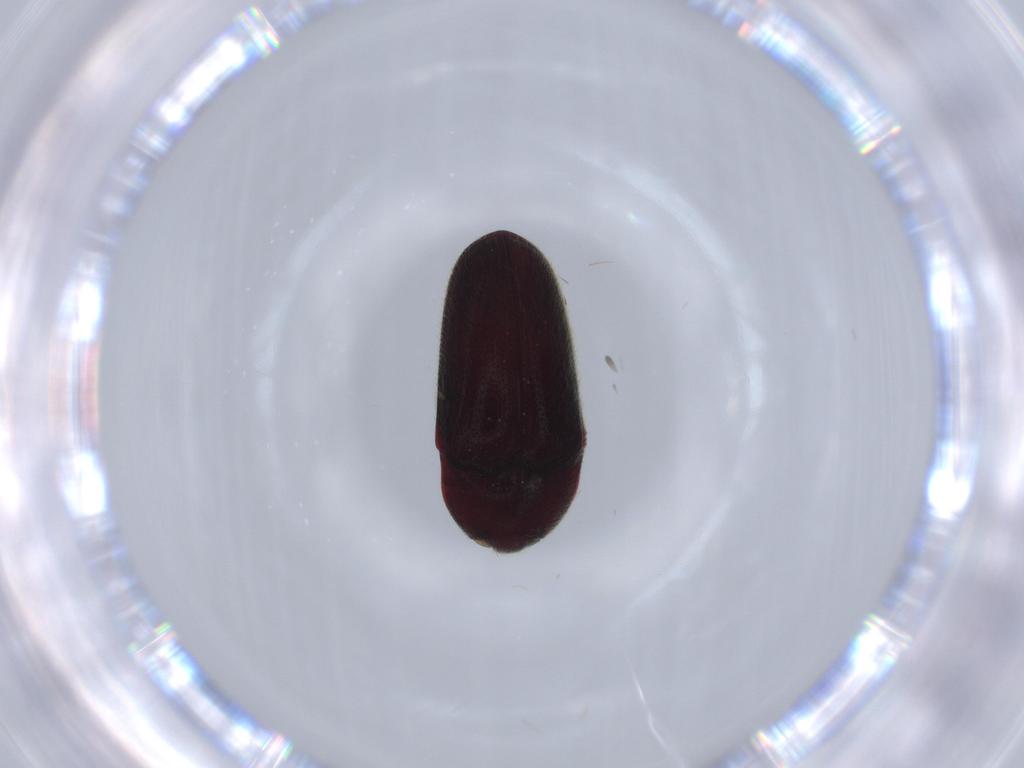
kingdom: Animalia
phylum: Arthropoda
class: Insecta
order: Coleoptera
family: Throscidae
